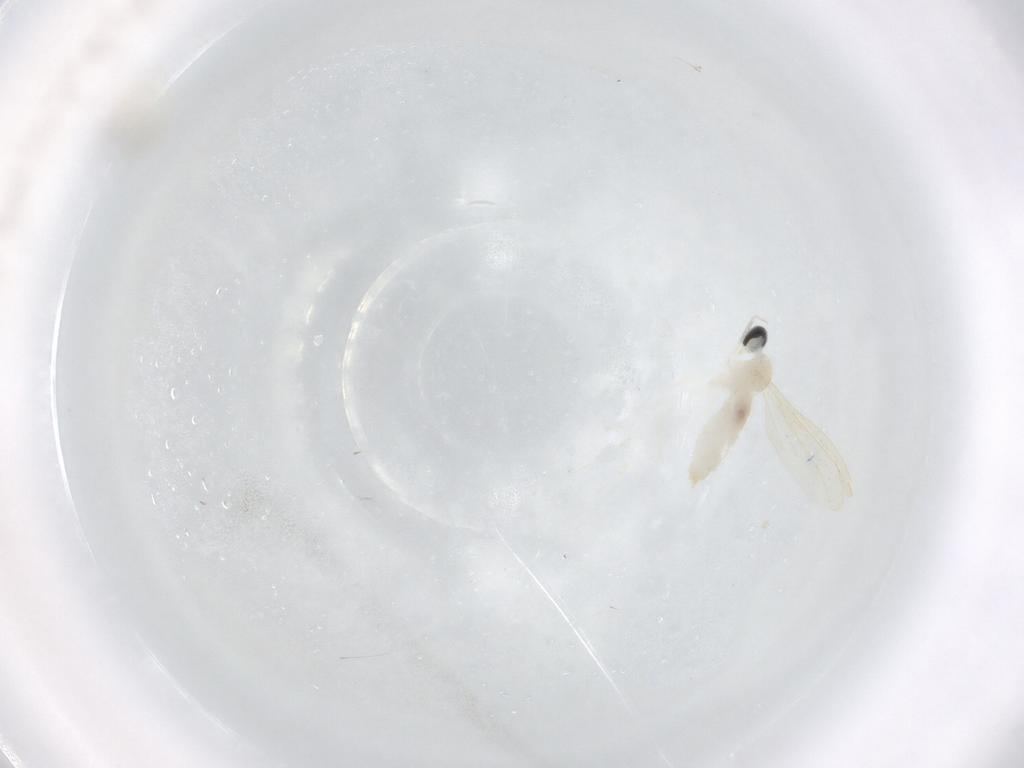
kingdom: Animalia
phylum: Arthropoda
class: Insecta
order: Diptera
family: Cecidomyiidae
